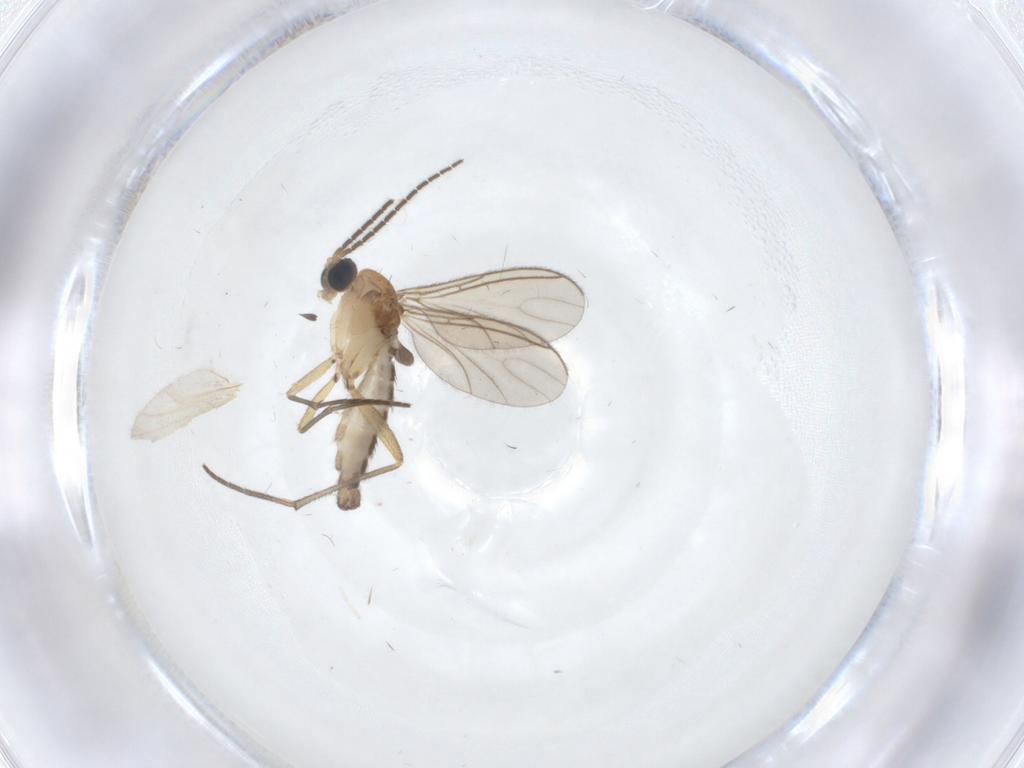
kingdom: Animalia
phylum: Arthropoda
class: Insecta
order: Diptera
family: Sciaridae
